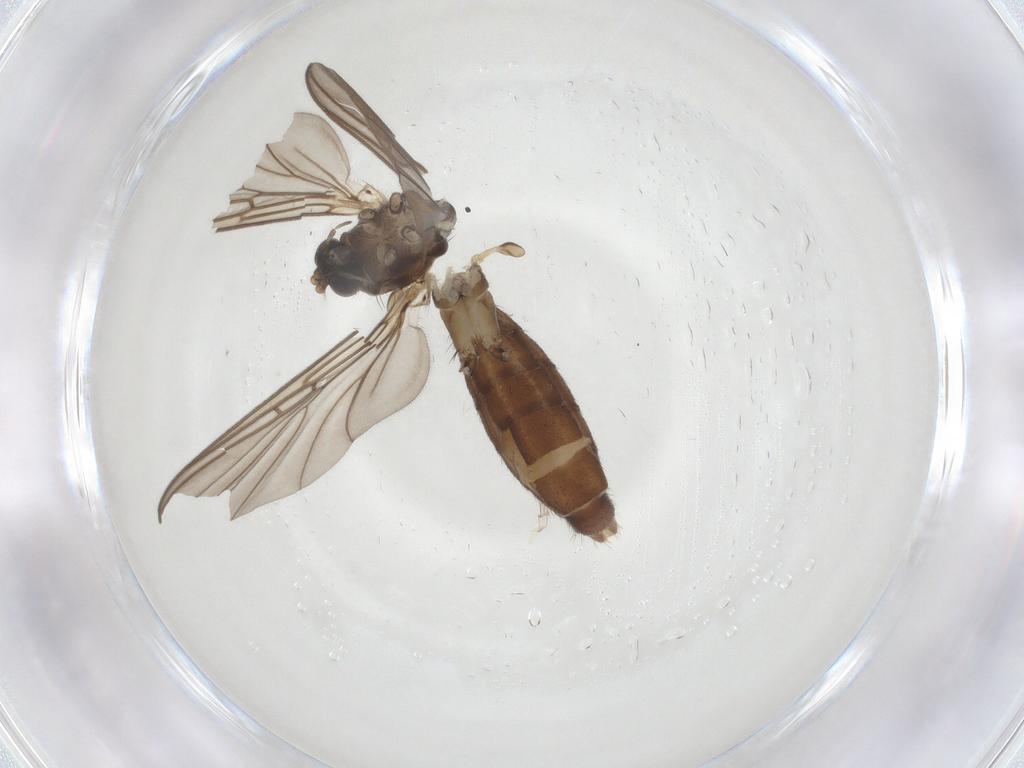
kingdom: Animalia
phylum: Arthropoda
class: Insecta
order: Diptera
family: Mycetophilidae
